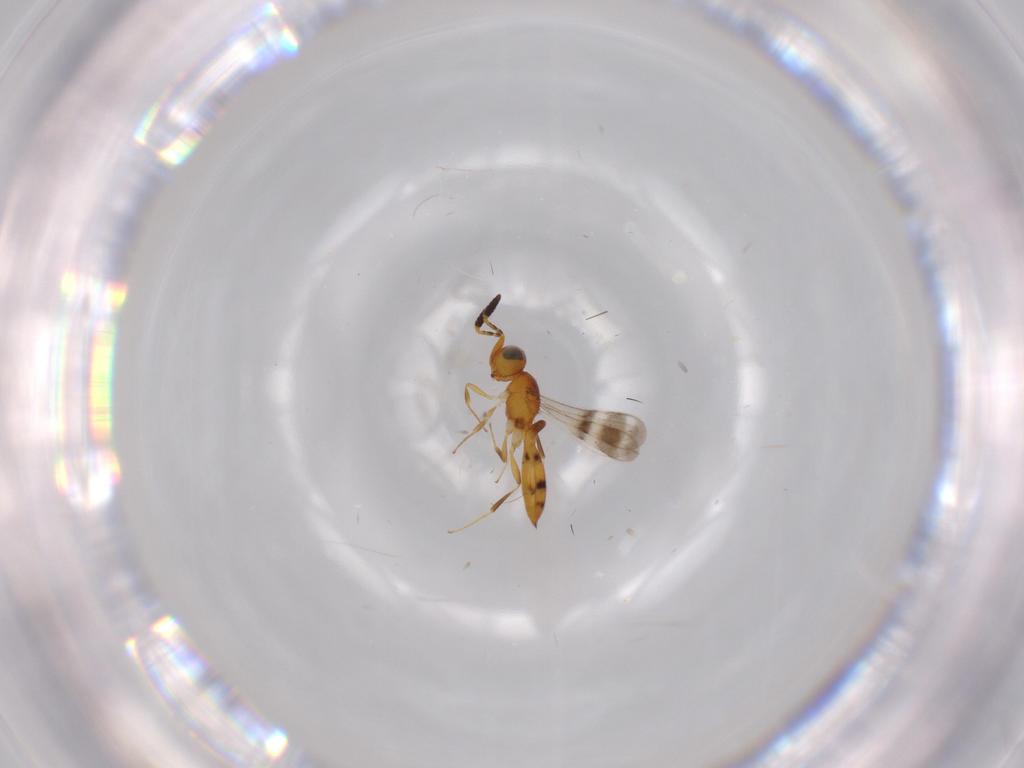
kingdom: Animalia
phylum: Arthropoda
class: Insecta
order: Hymenoptera
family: Scelionidae
